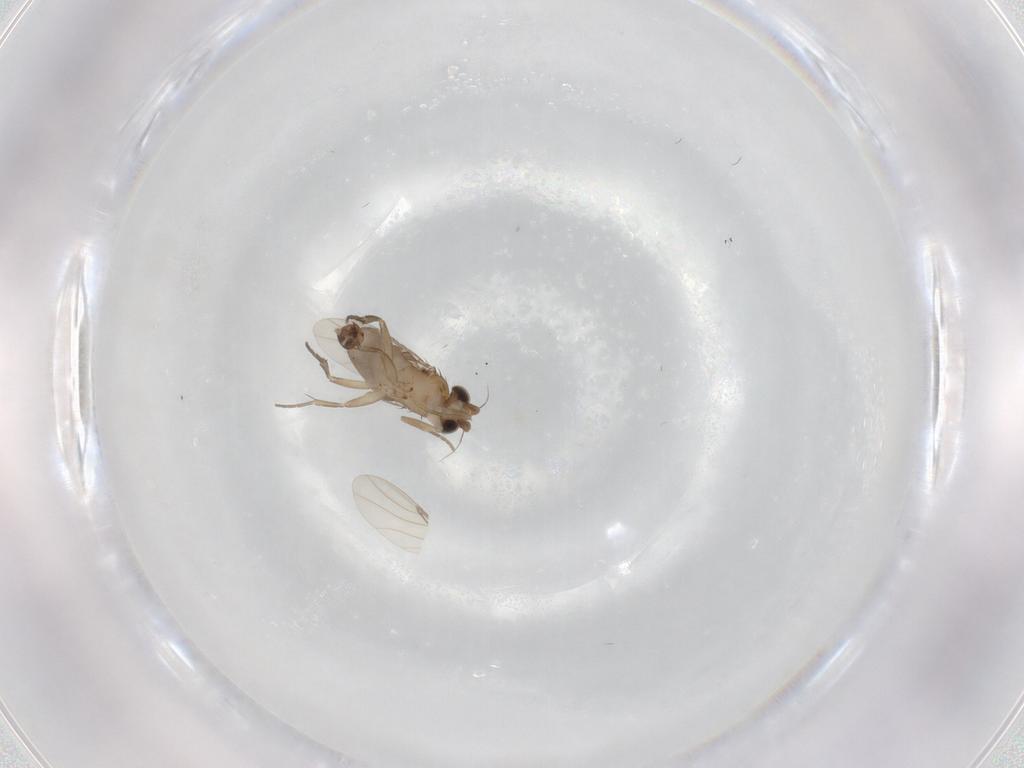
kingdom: Animalia
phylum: Arthropoda
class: Insecta
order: Diptera
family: Phoridae
